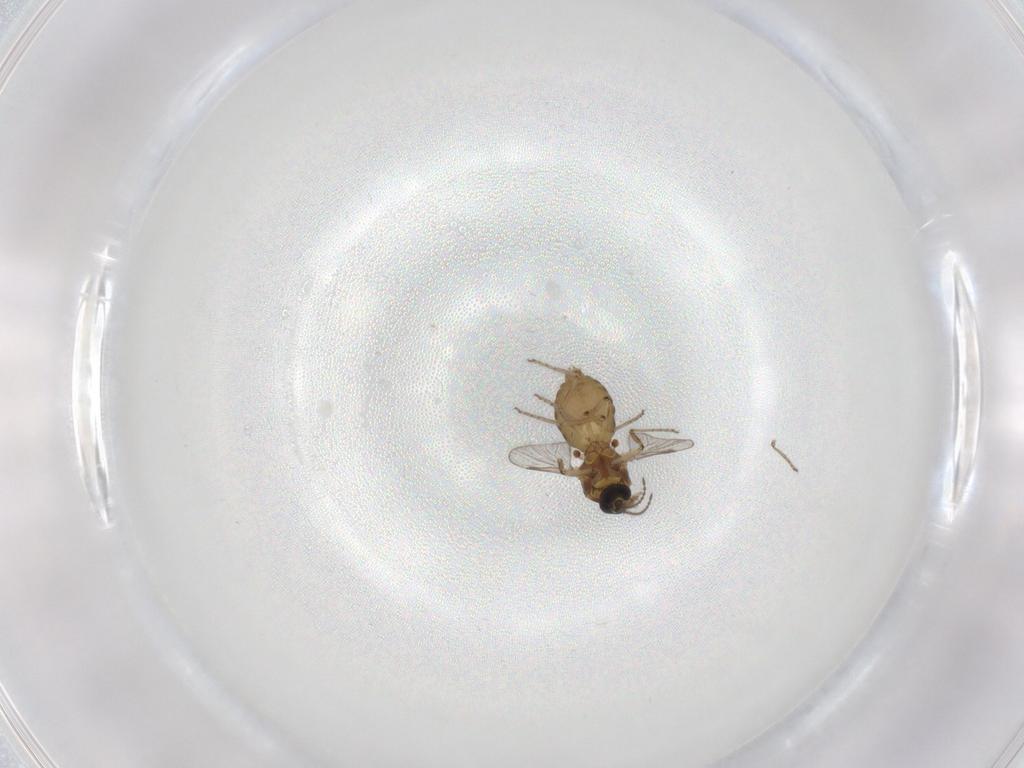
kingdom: Animalia
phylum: Arthropoda
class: Insecta
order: Diptera
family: Ceratopogonidae
